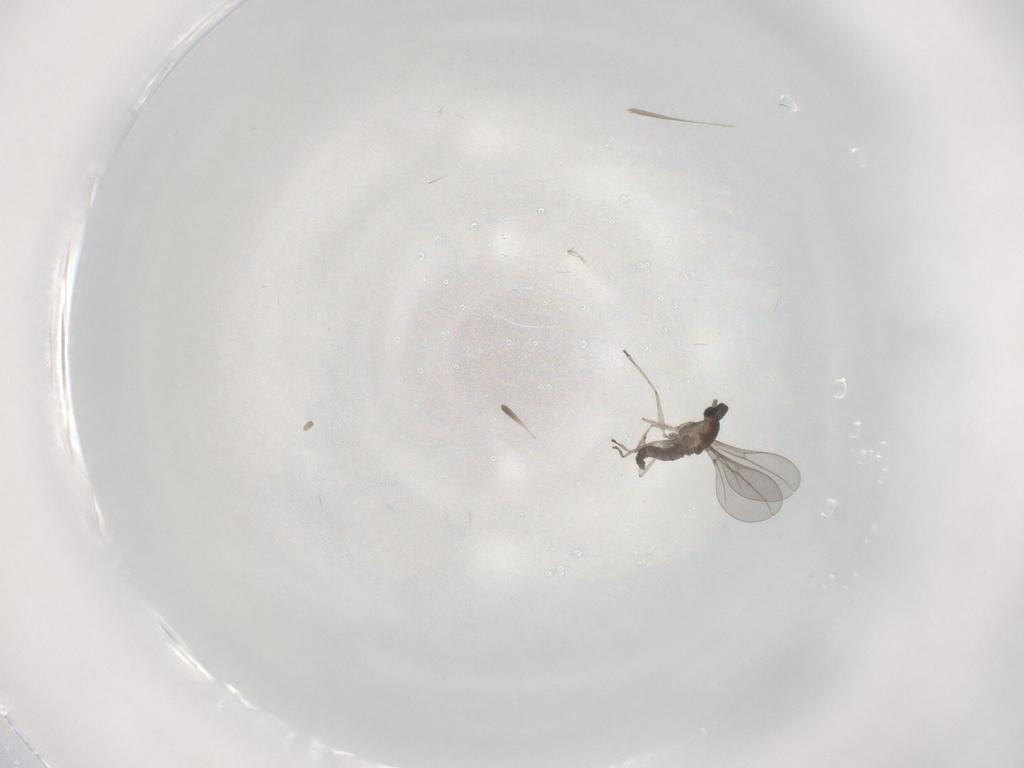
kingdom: Animalia
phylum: Arthropoda
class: Insecta
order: Diptera
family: Cecidomyiidae
